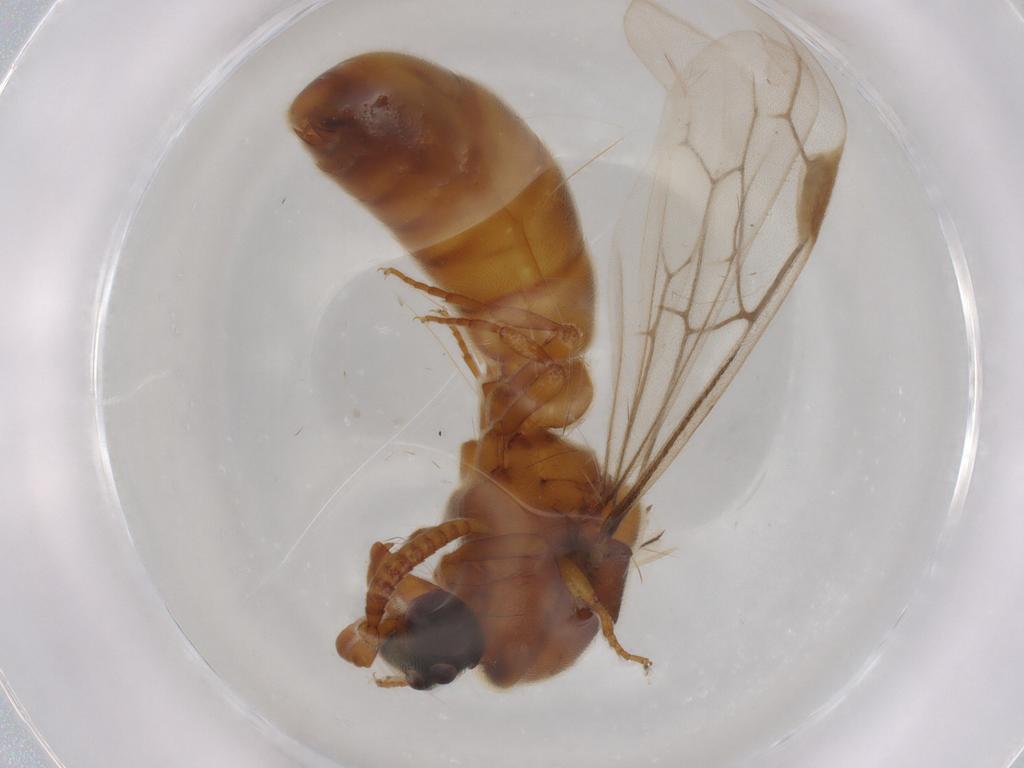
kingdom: Animalia
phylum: Arthropoda
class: Insecta
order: Hymenoptera
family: Formicidae
